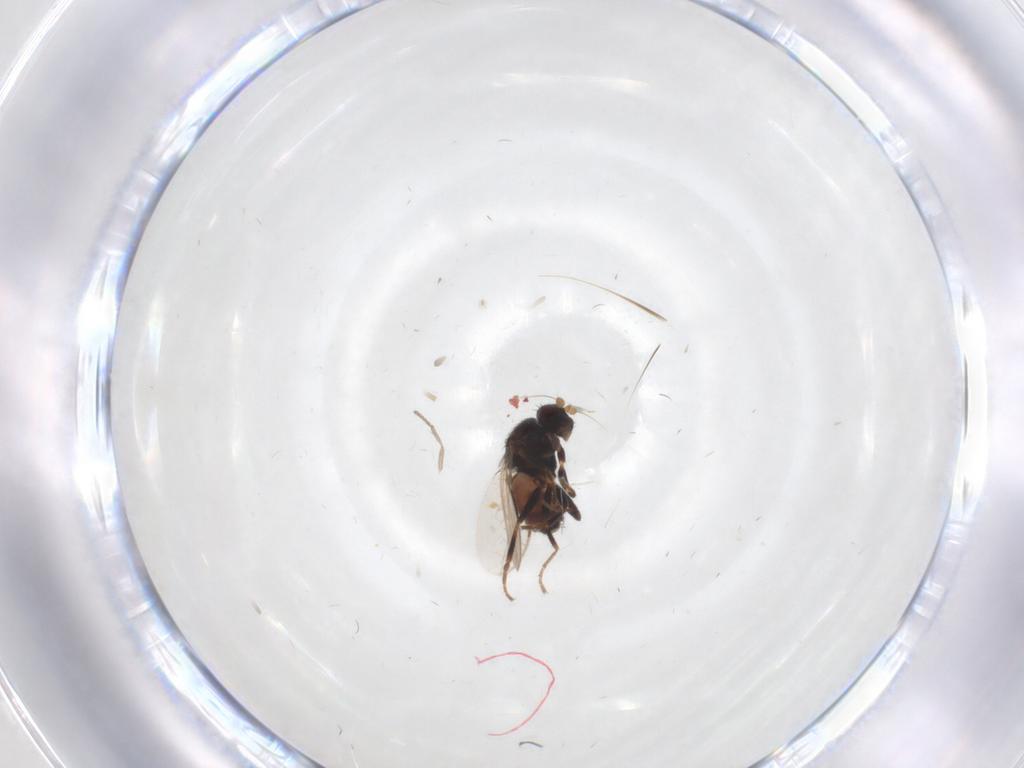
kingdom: Animalia
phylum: Arthropoda
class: Insecta
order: Diptera
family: Sphaeroceridae
